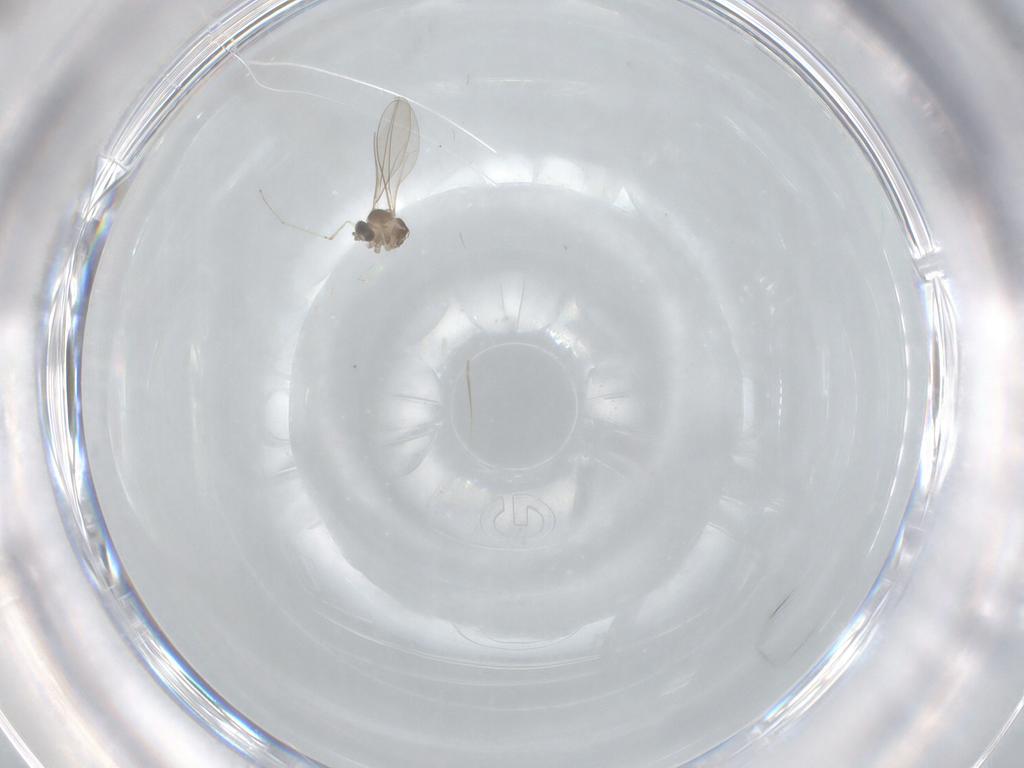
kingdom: Animalia
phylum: Arthropoda
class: Insecta
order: Diptera
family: Cecidomyiidae
